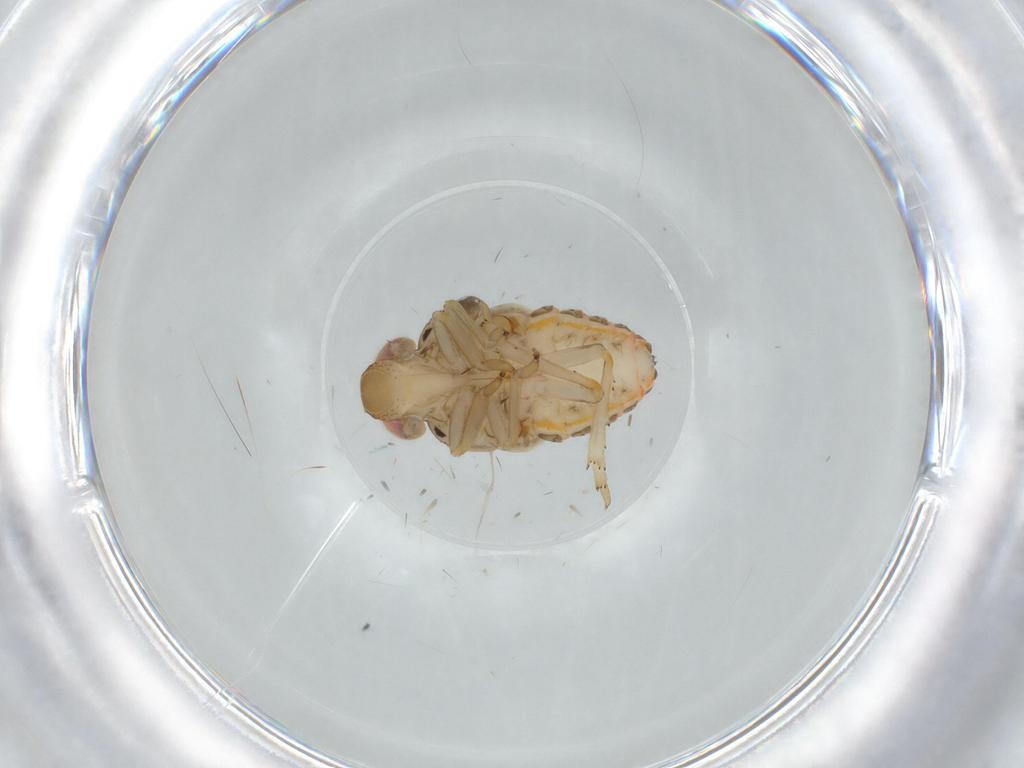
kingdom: Animalia
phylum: Arthropoda
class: Insecta
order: Hemiptera
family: Issidae
